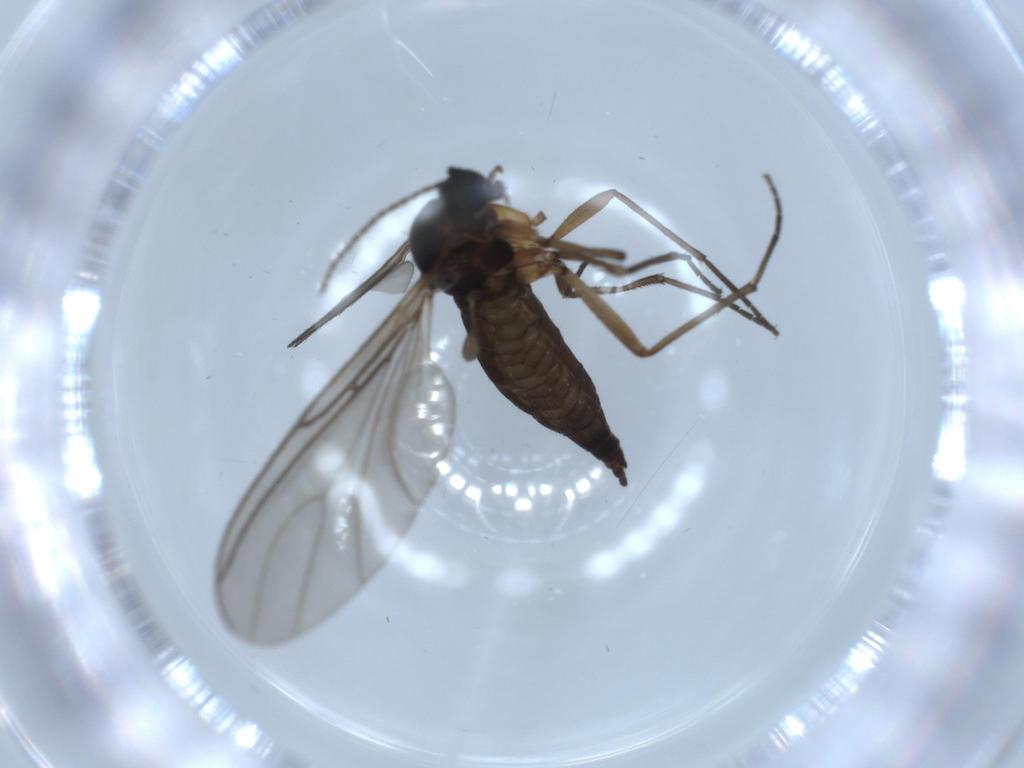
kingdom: Animalia
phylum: Arthropoda
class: Insecta
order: Diptera
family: Sciaridae
